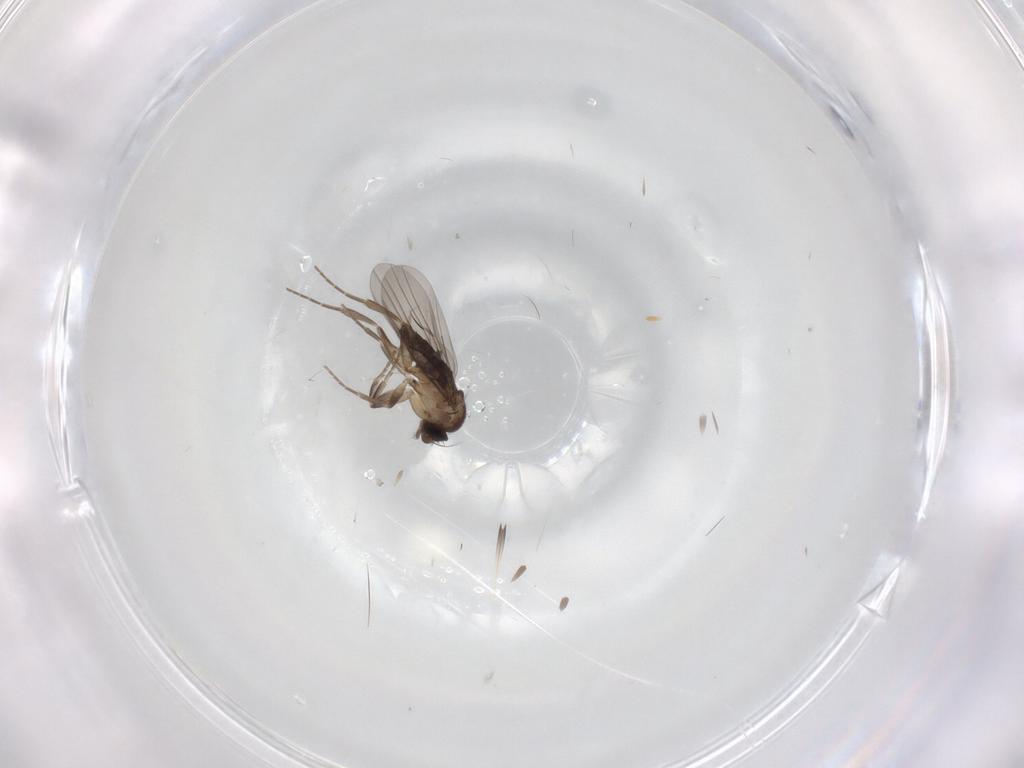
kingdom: Animalia
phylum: Arthropoda
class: Insecta
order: Diptera
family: Phoridae
